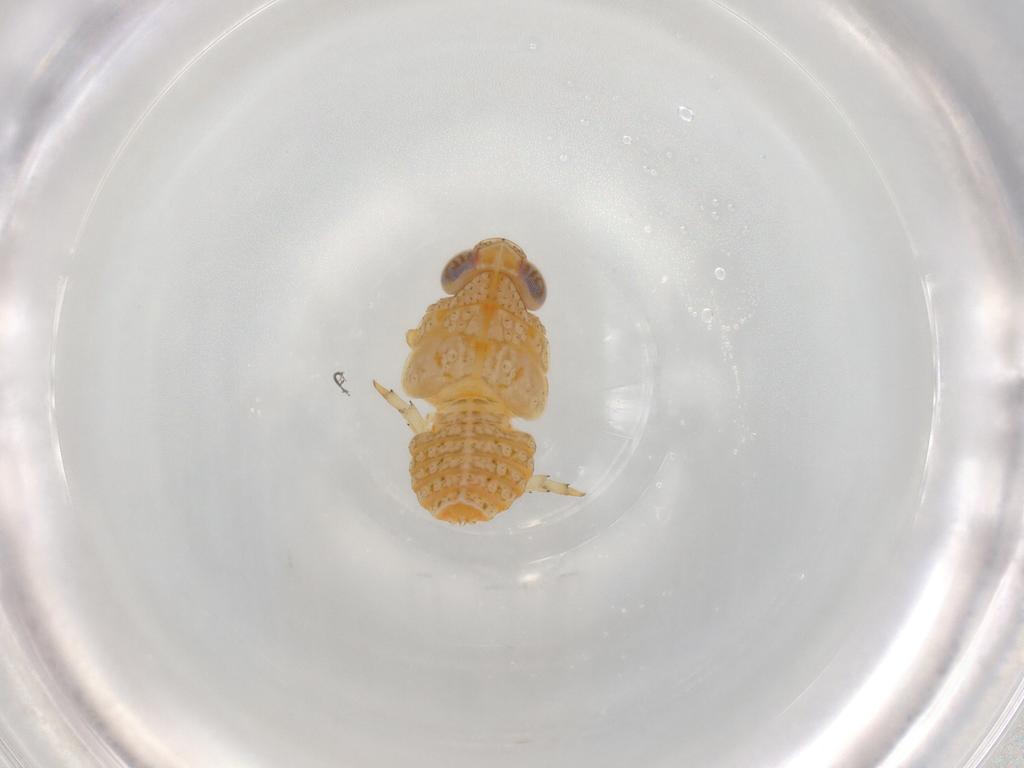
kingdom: Animalia
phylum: Arthropoda
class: Insecta
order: Hemiptera
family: Issidae
